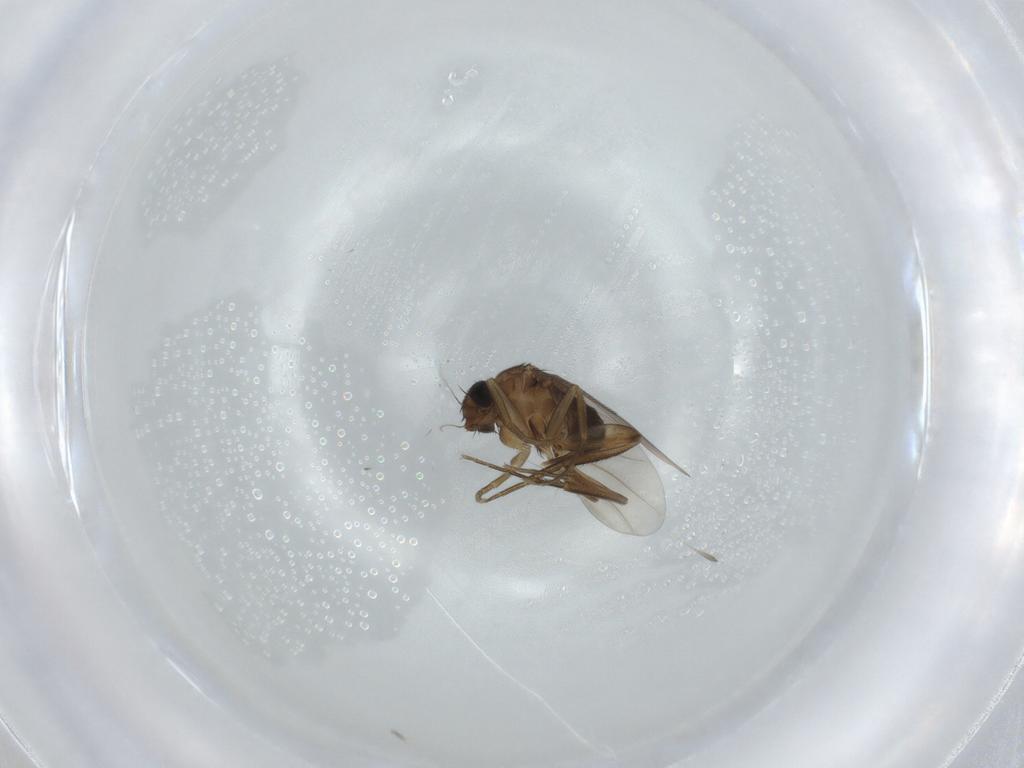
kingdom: Animalia
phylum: Arthropoda
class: Insecta
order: Diptera
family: Phoridae
